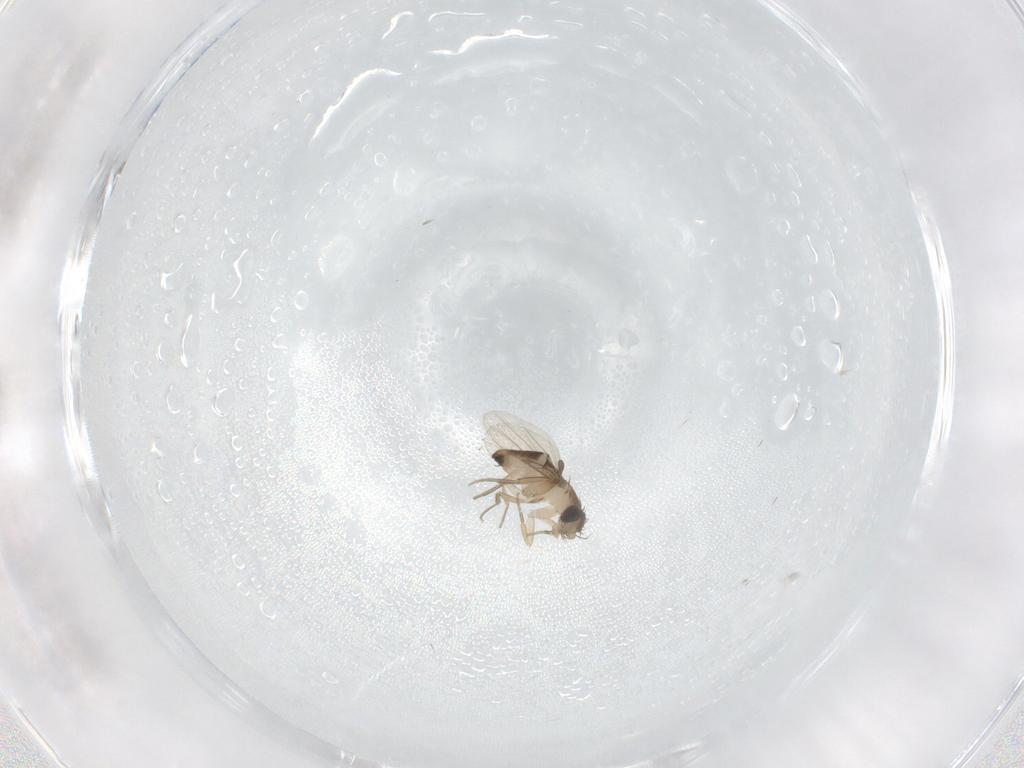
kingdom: Animalia
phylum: Arthropoda
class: Insecta
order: Diptera
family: Phoridae
